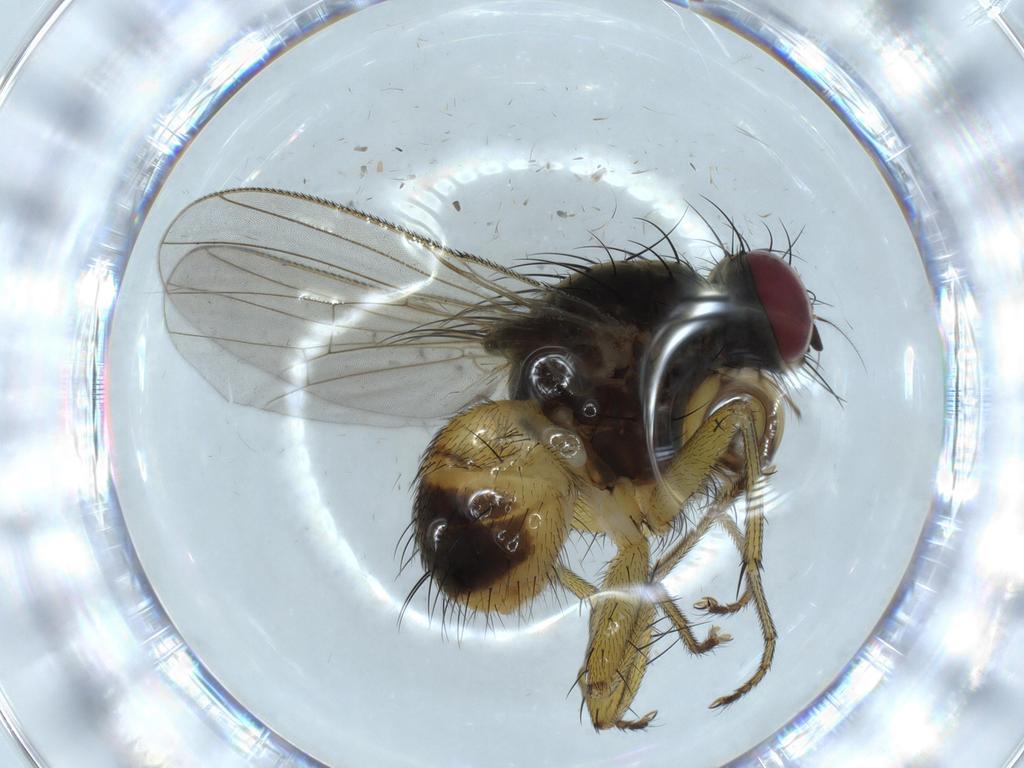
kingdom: Animalia
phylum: Arthropoda
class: Insecta
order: Diptera
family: Muscidae
